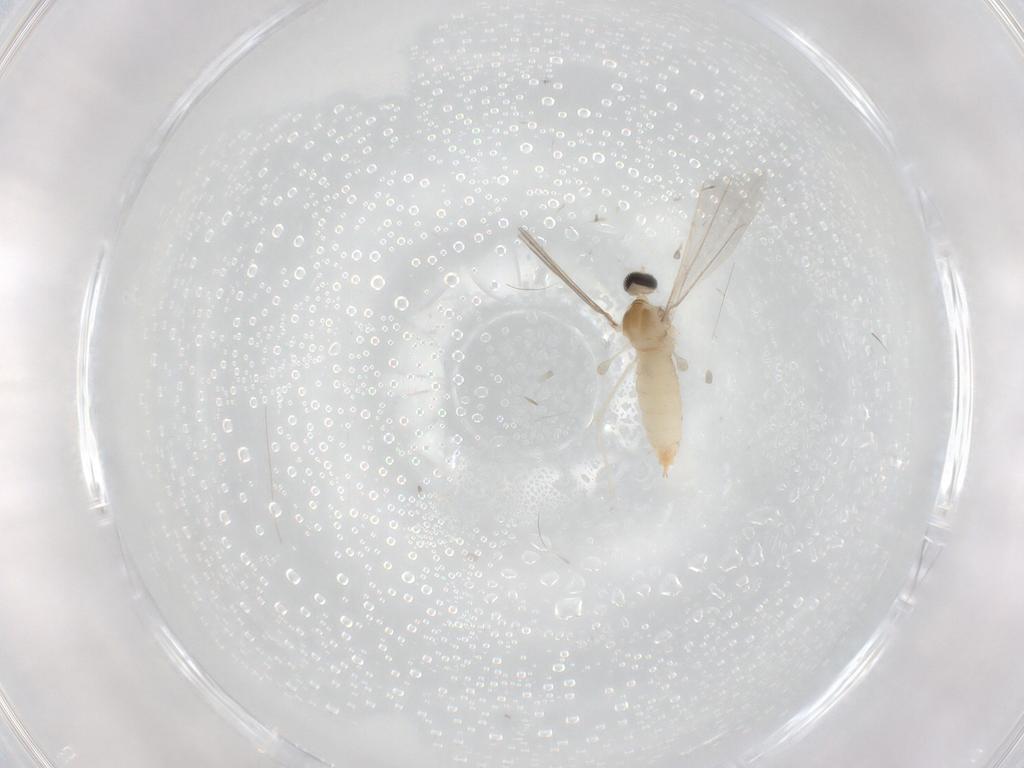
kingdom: Animalia
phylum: Arthropoda
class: Insecta
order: Diptera
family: Cecidomyiidae
